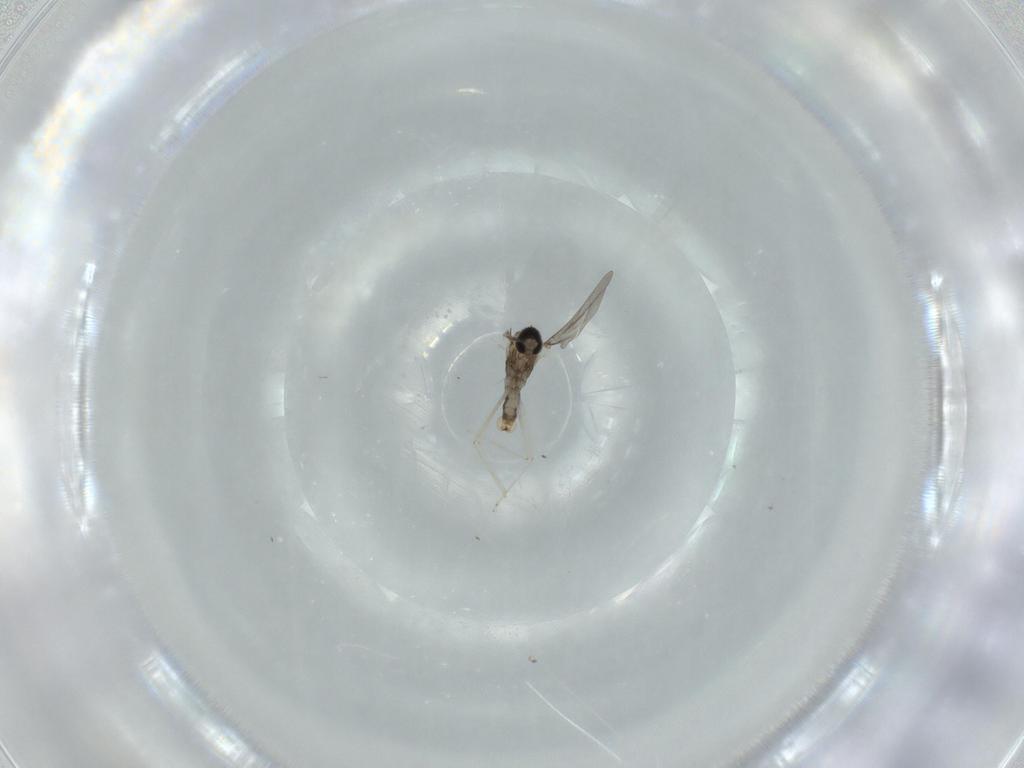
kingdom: Animalia
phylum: Arthropoda
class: Insecta
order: Diptera
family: Cecidomyiidae
